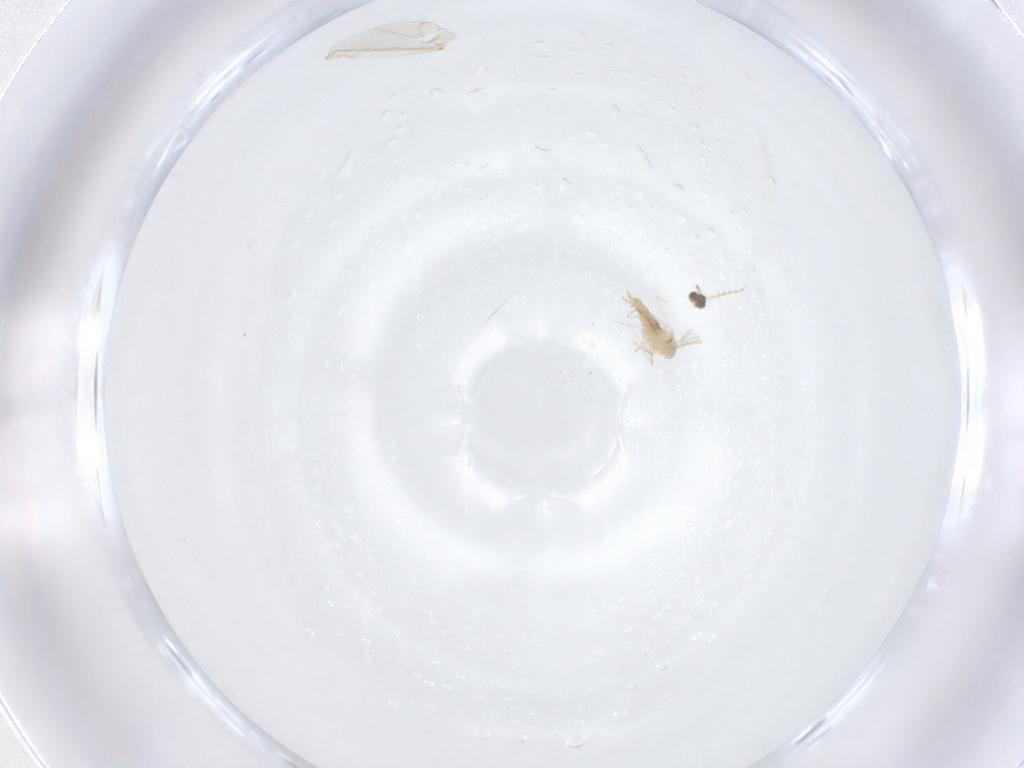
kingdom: Animalia
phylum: Arthropoda
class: Insecta
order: Diptera
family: Cecidomyiidae
